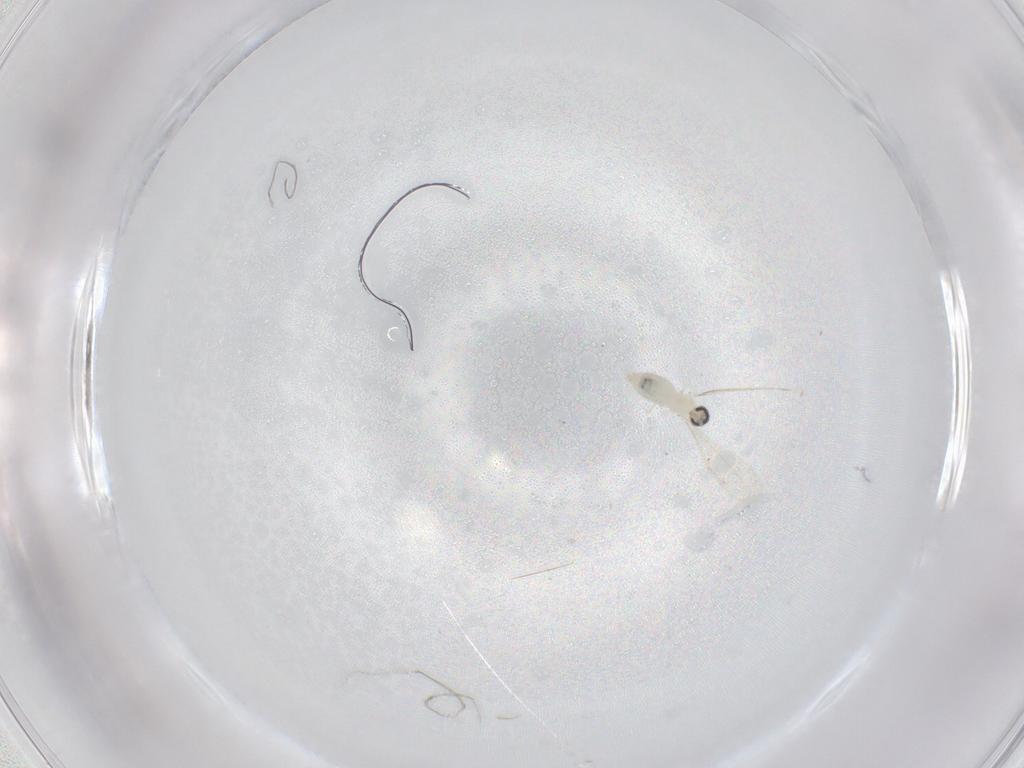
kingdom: Animalia
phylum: Arthropoda
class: Insecta
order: Diptera
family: Cecidomyiidae
